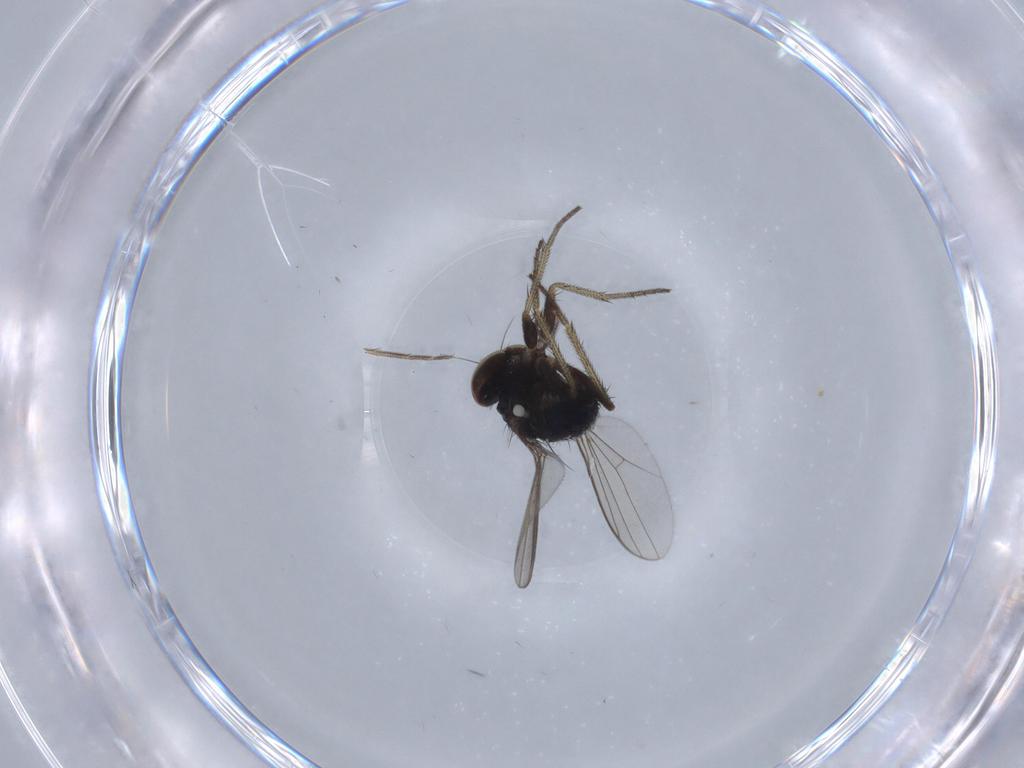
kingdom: Animalia
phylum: Arthropoda
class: Insecta
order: Diptera
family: Dolichopodidae
